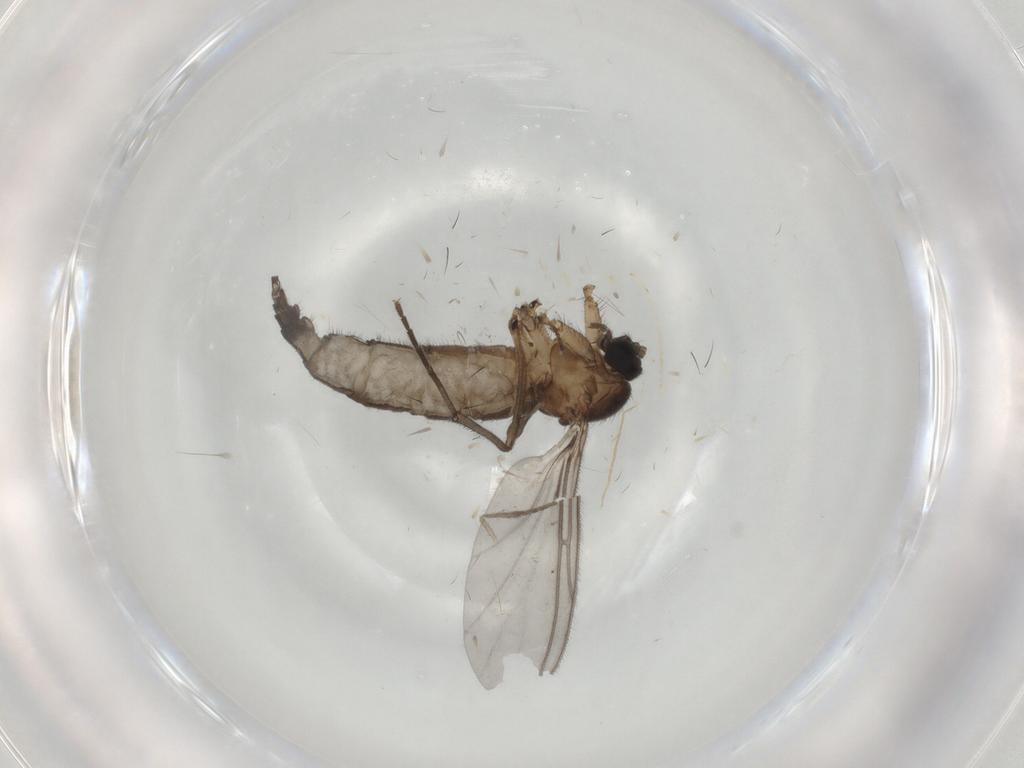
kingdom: Animalia
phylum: Arthropoda
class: Insecta
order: Diptera
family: Sciaridae
